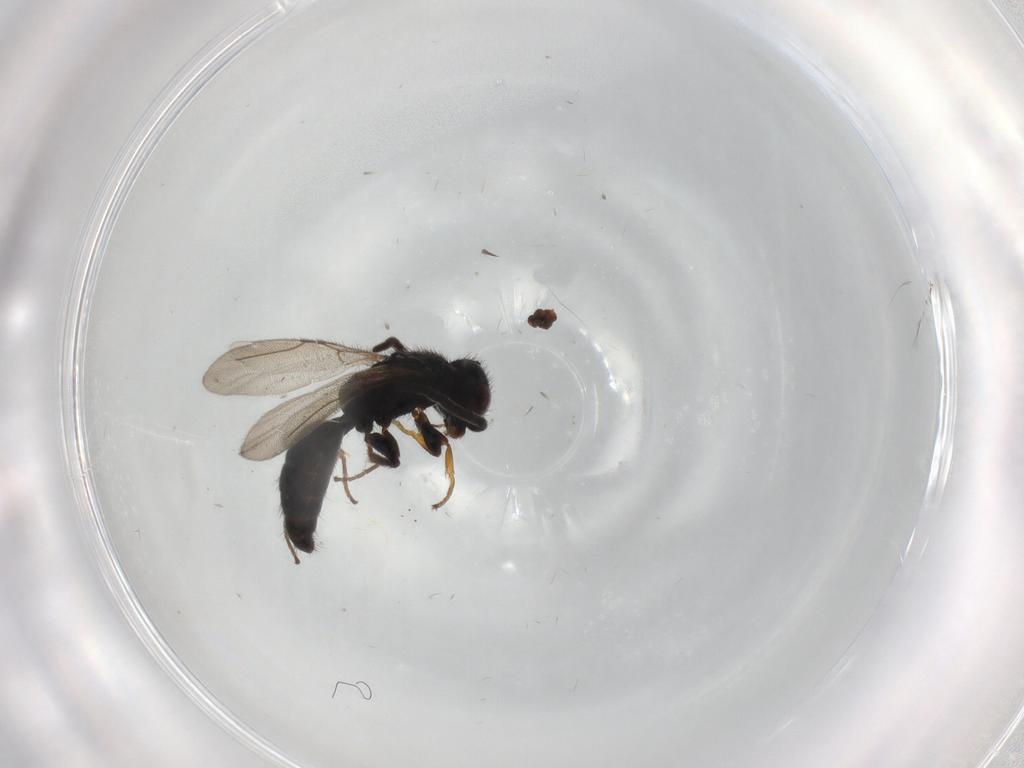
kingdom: Animalia
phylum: Arthropoda
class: Insecta
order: Hymenoptera
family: Bethylidae
